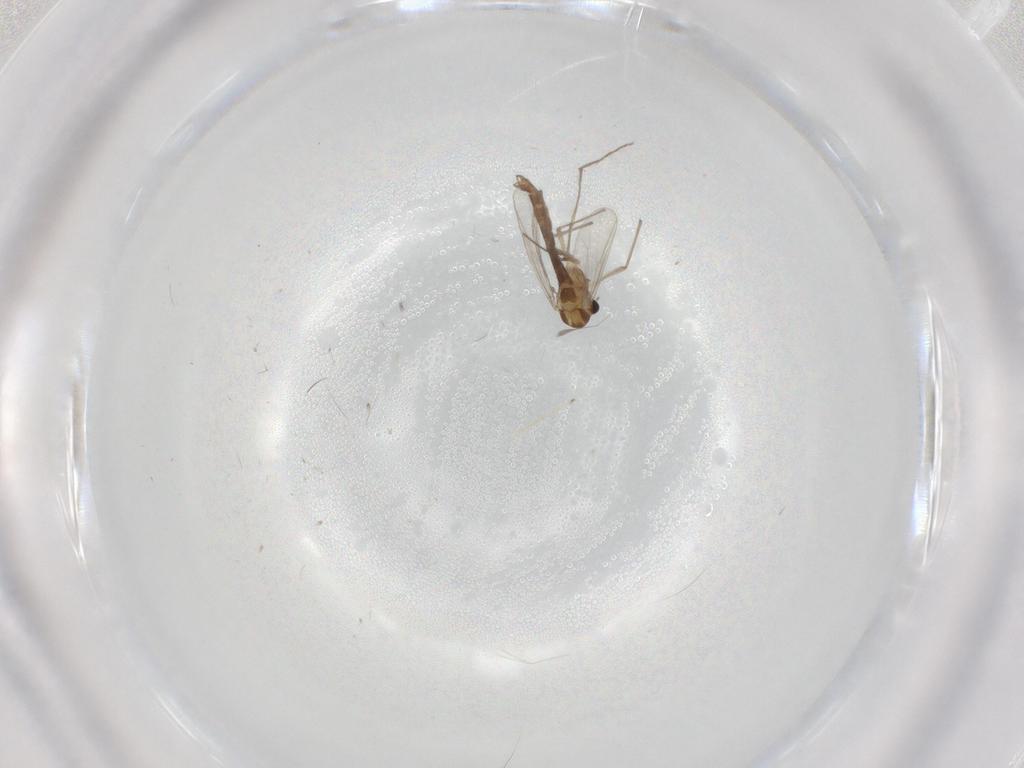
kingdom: Animalia
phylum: Arthropoda
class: Insecta
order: Diptera
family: Chironomidae
